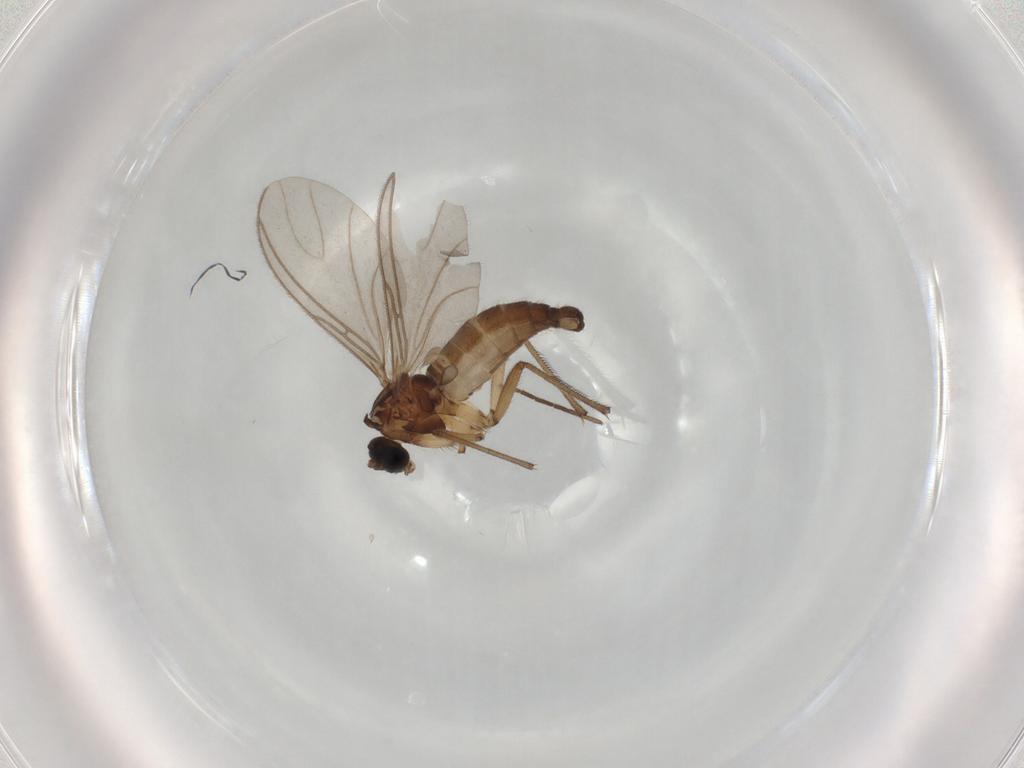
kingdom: Animalia
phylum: Arthropoda
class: Insecta
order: Diptera
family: Sciaridae
